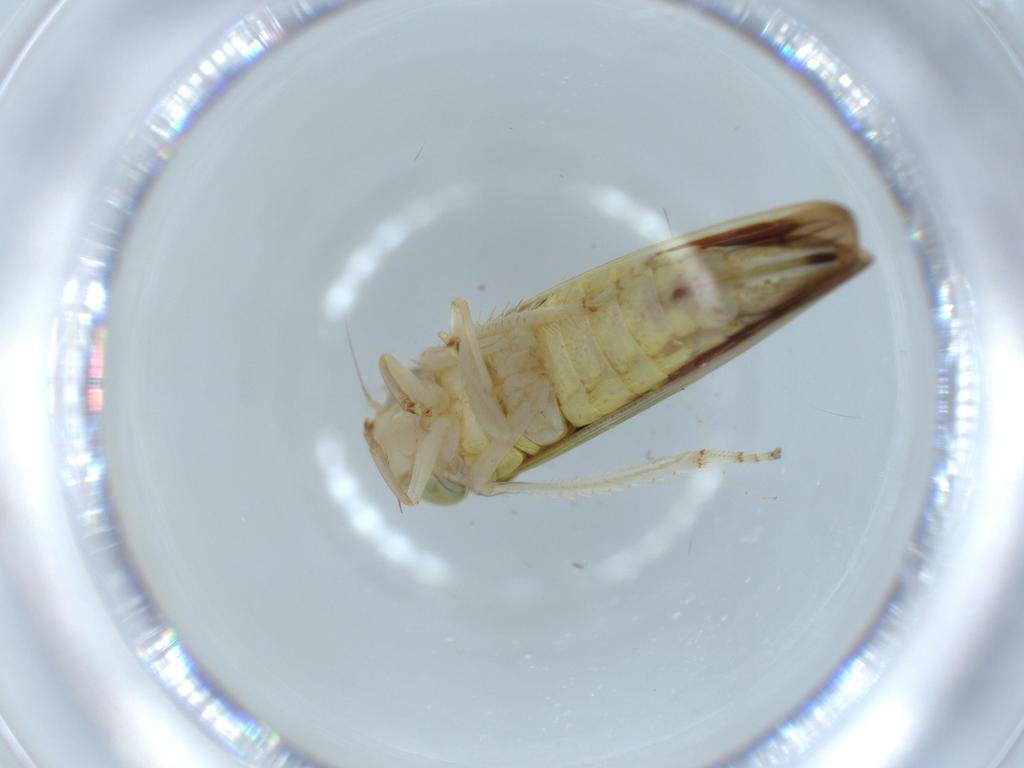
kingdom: Animalia
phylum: Arthropoda
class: Insecta
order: Hemiptera
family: Cicadellidae
